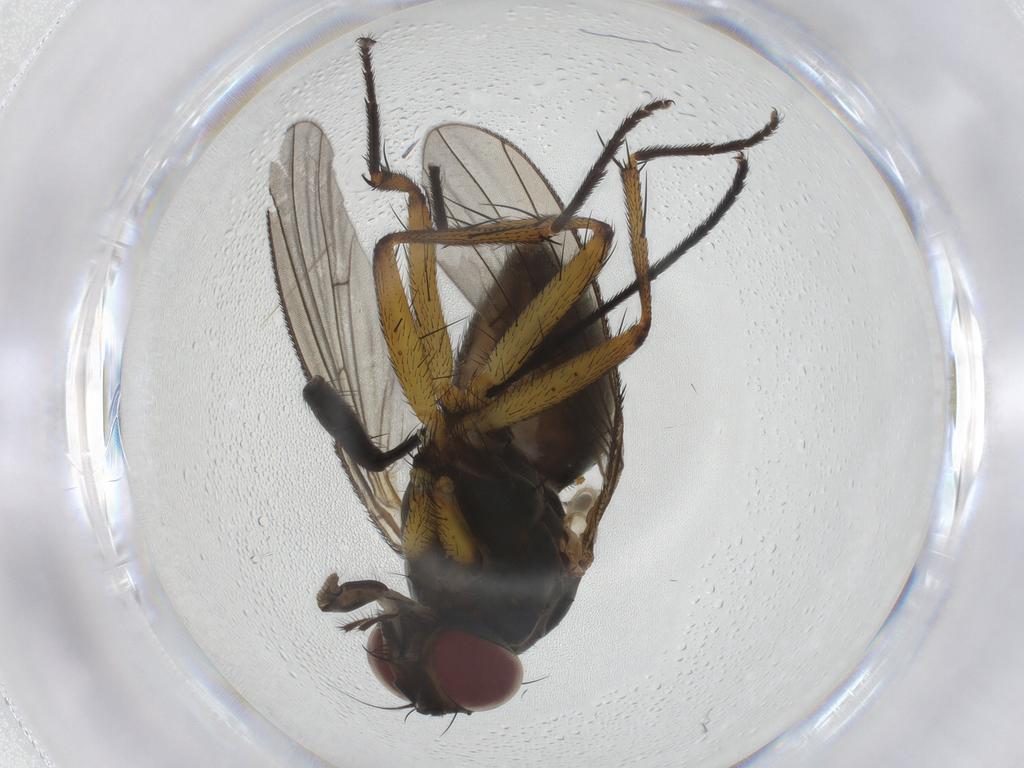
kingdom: Animalia
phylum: Arthropoda
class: Insecta
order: Diptera
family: Muscidae
